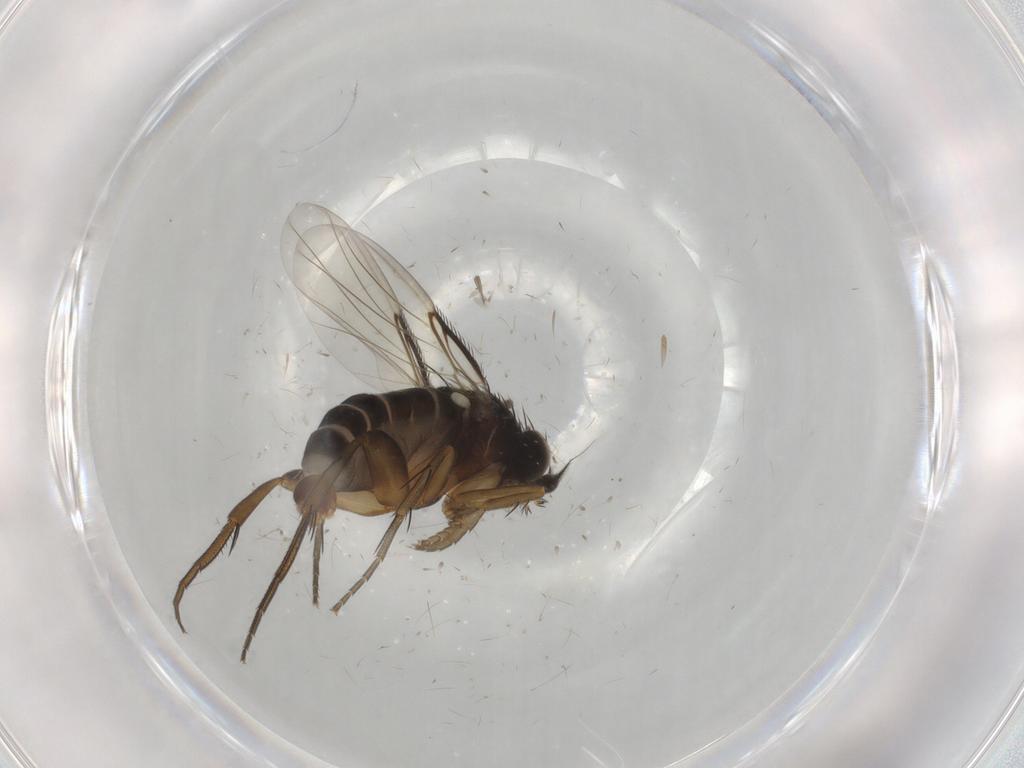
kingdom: Animalia
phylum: Arthropoda
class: Insecta
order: Diptera
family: Phoridae
